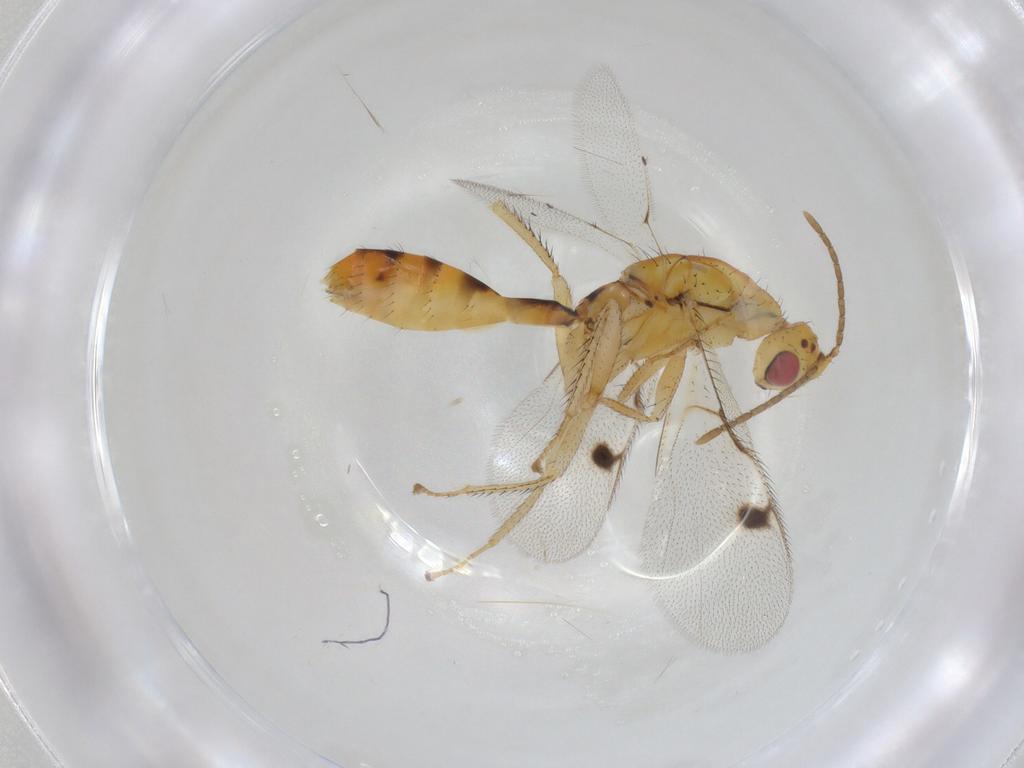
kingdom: Animalia
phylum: Arthropoda
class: Insecta
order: Hymenoptera
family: Megastigmidae
